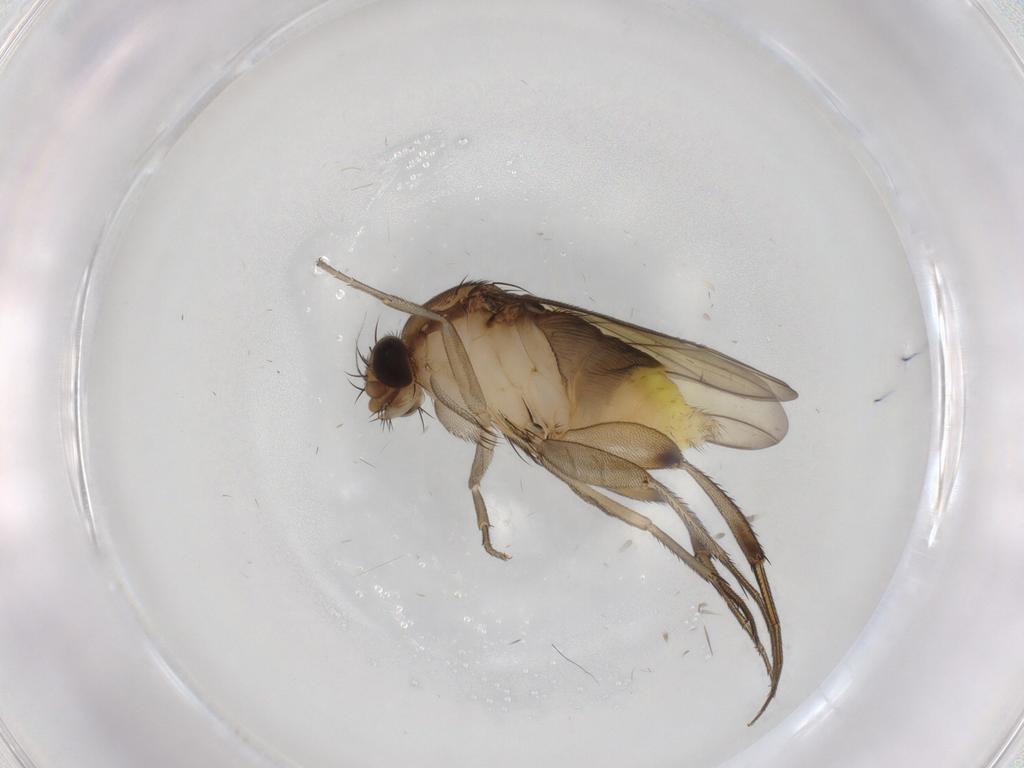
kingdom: Animalia
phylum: Arthropoda
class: Insecta
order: Diptera
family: Phoridae
